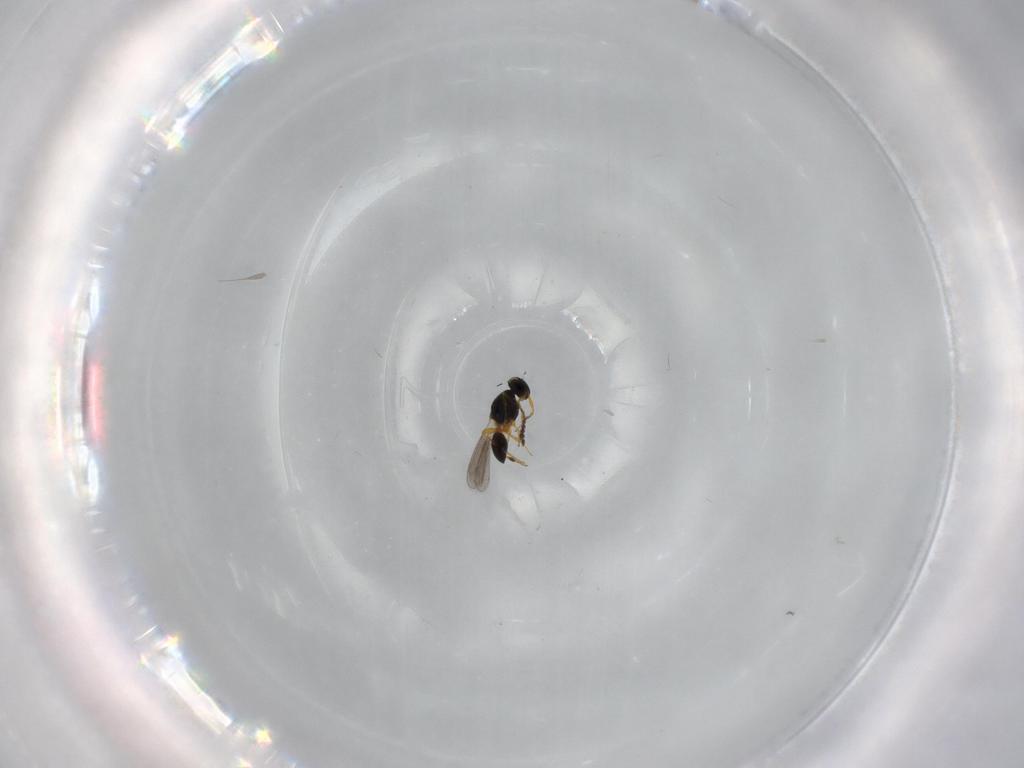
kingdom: Animalia
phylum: Arthropoda
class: Insecta
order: Hymenoptera
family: Platygastridae
